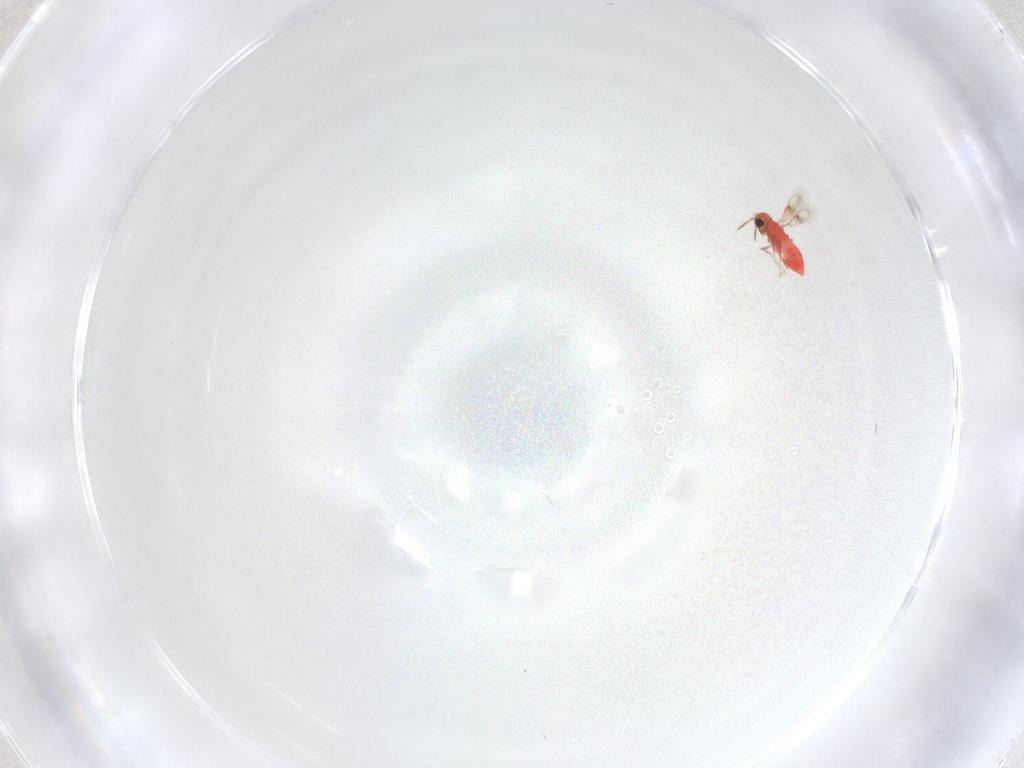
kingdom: Animalia
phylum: Arthropoda
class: Insecta
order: Hymenoptera
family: Trichogrammatidae
